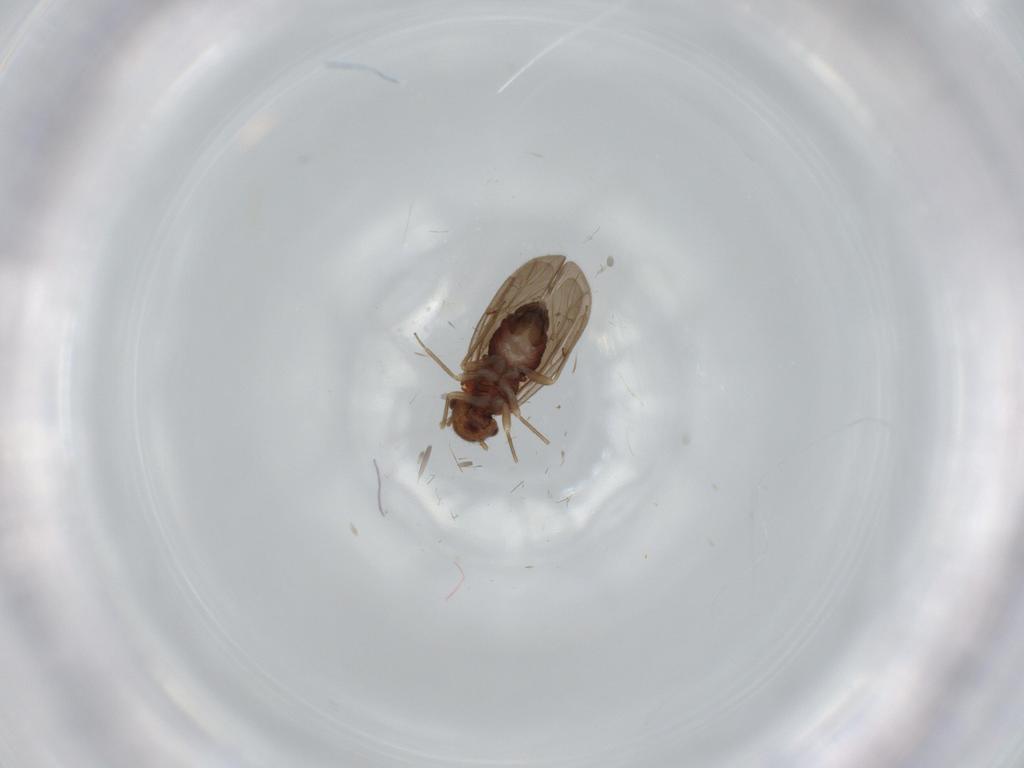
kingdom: Animalia
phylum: Arthropoda
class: Insecta
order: Psocodea
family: Ectopsocidae
